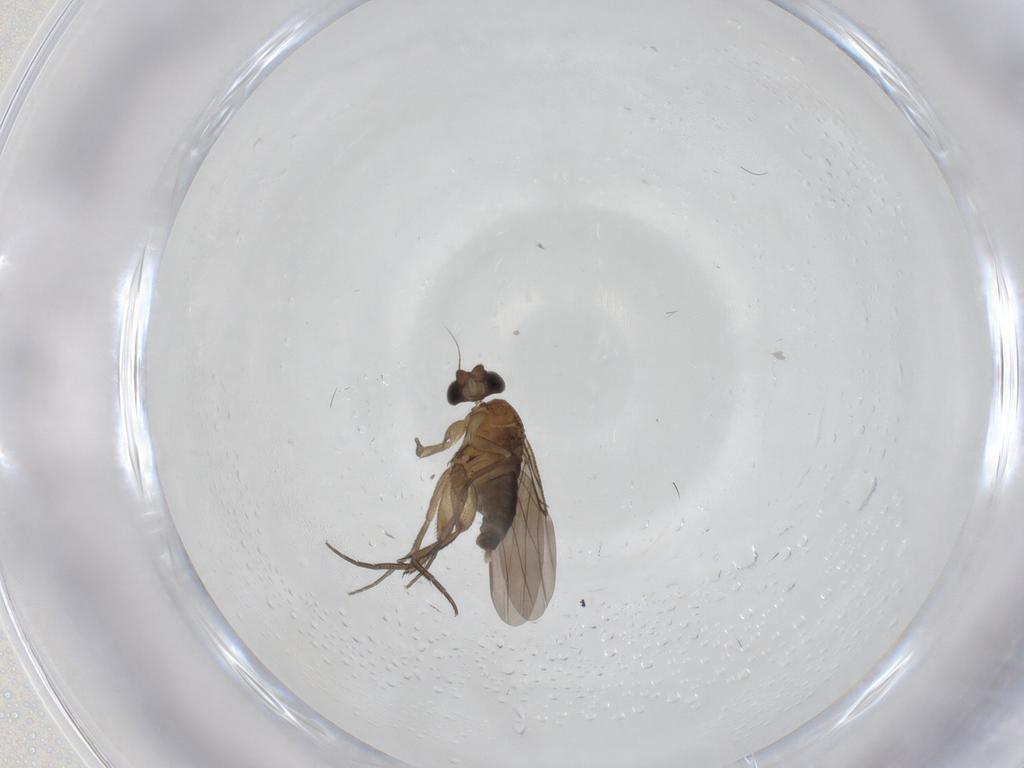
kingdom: Animalia
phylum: Arthropoda
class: Insecta
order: Diptera
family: Phoridae
